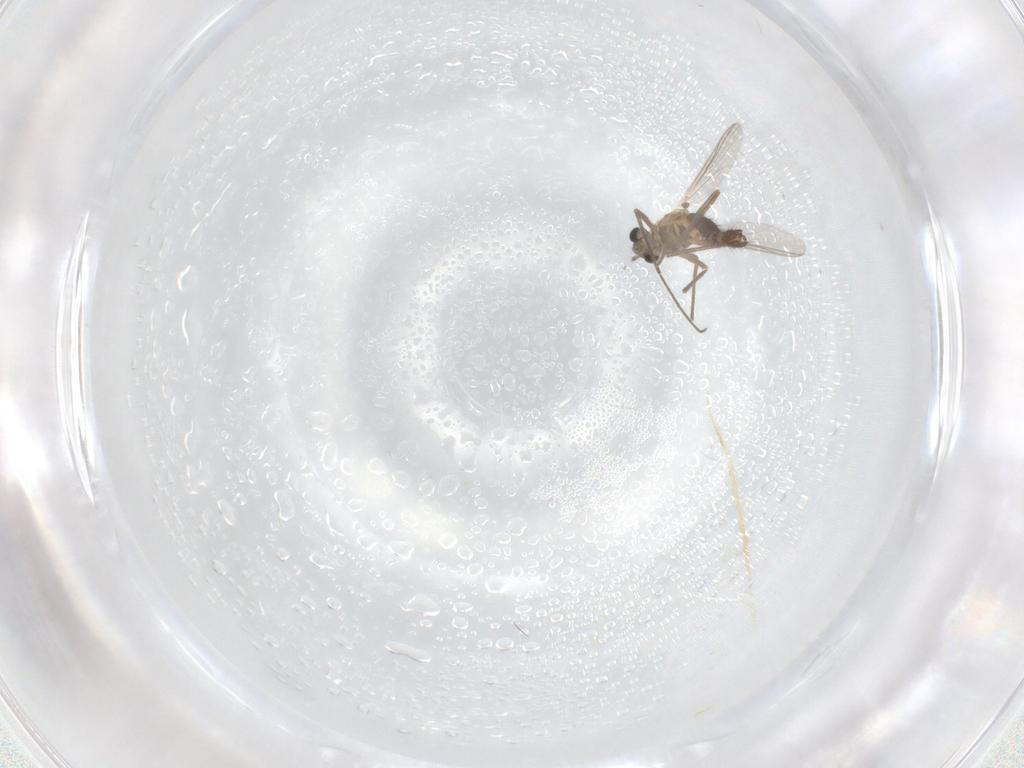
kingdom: Animalia
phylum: Arthropoda
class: Insecta
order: Diptera
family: Chironomidae
